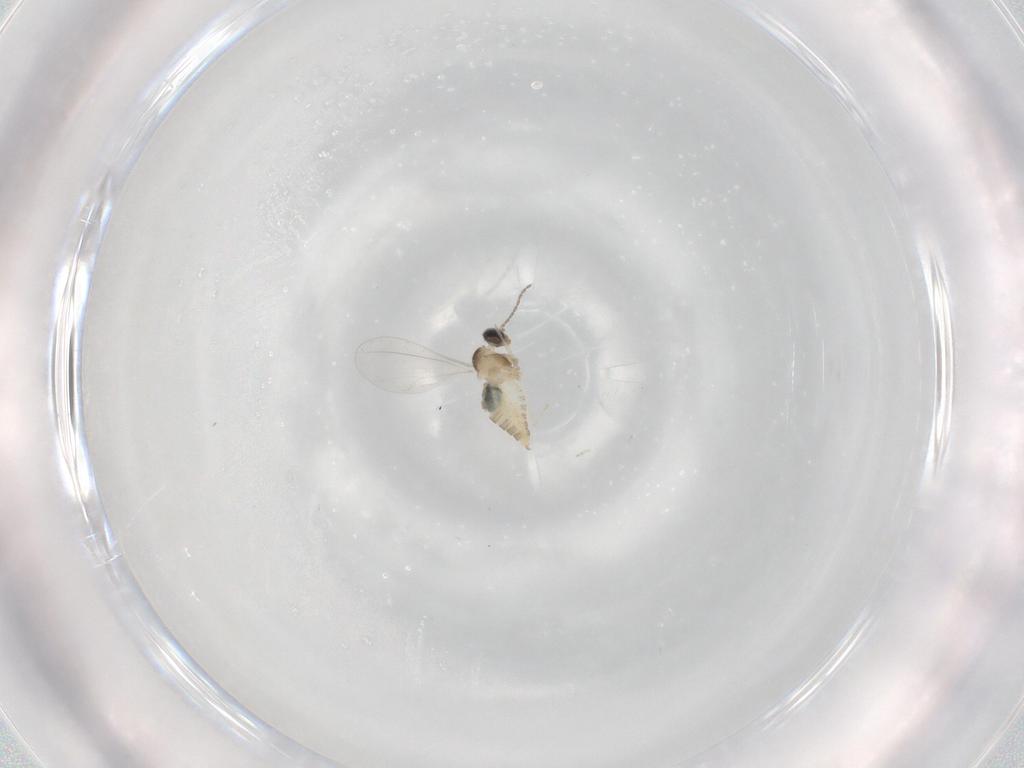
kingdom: Animalia
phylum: Arthropoda
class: Insecta
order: Diptera
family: Cecidomyiidae
